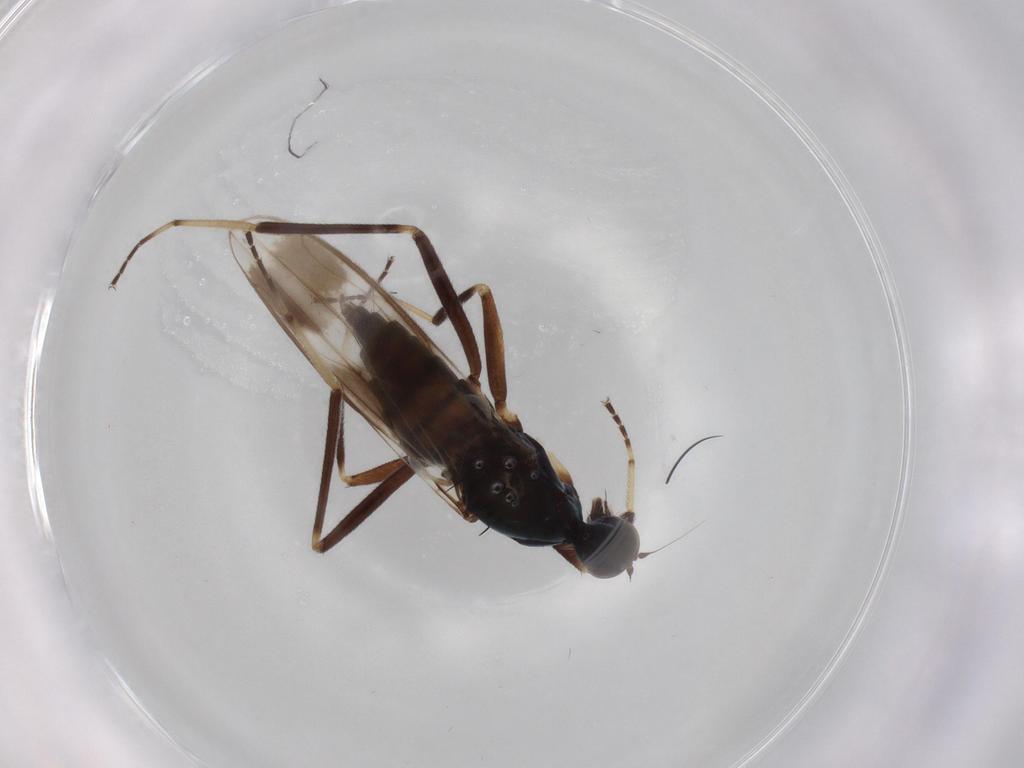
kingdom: Animalia
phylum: Arthropoda
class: Insecta
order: Diptera
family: Hybotidae
